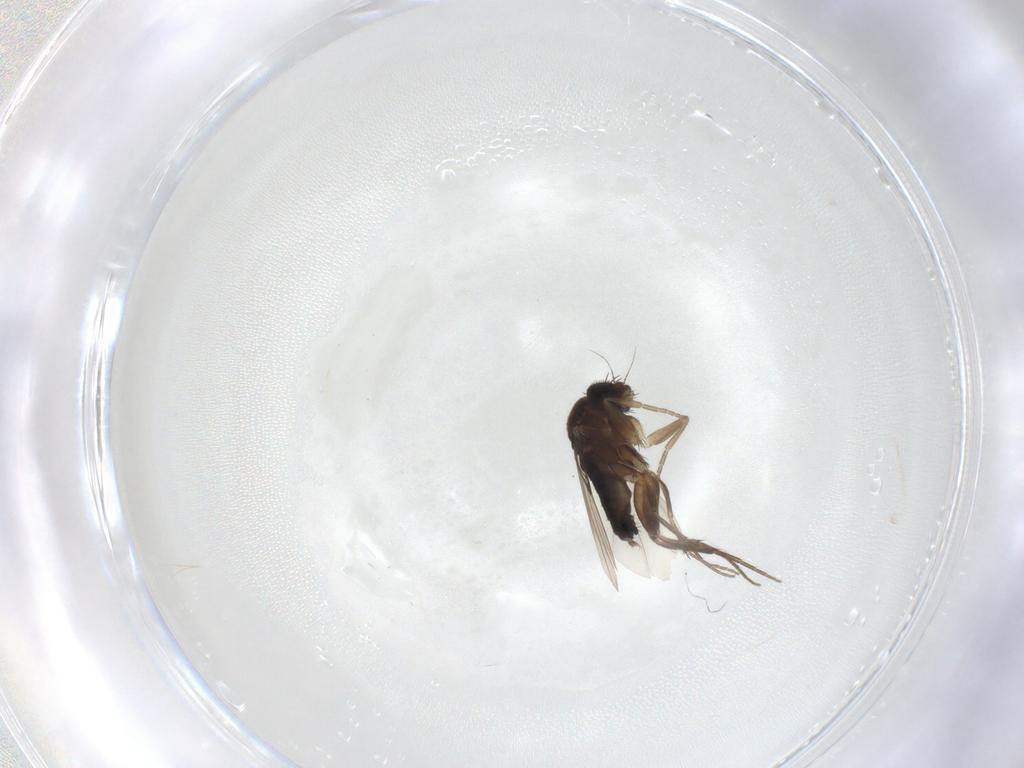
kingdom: Animalia
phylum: Arthropoda
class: Insecta
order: Diptera
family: Phoridae
